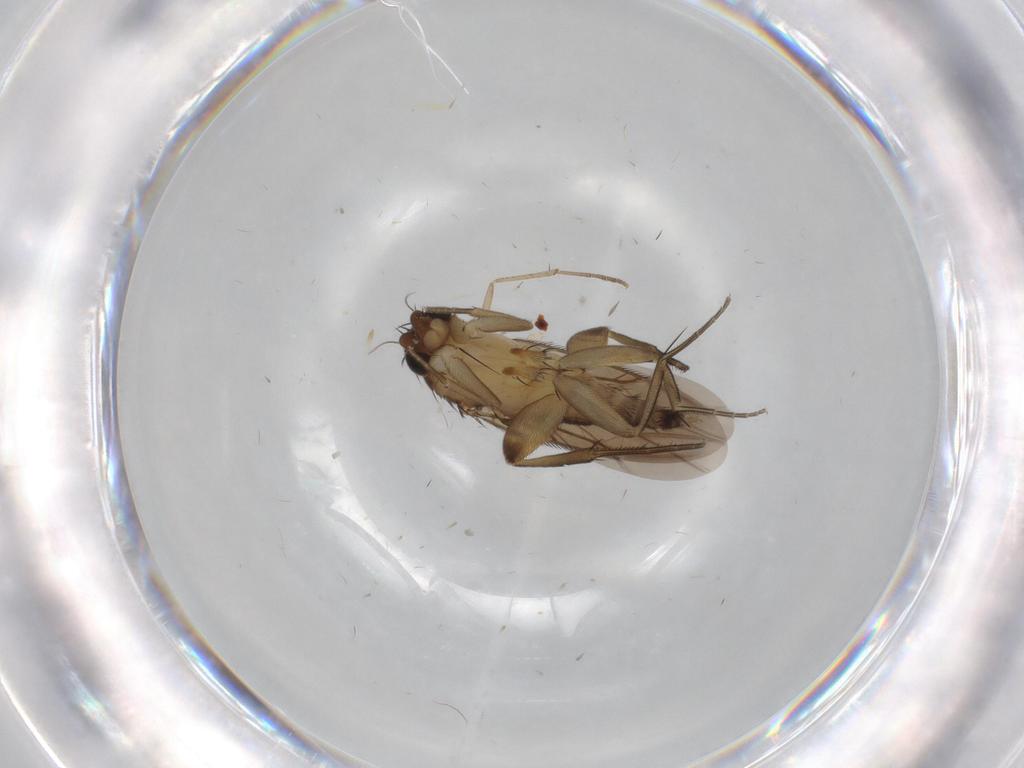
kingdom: Animalia
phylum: Arthropoda
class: Insecta
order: Diptera
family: Phoridae
